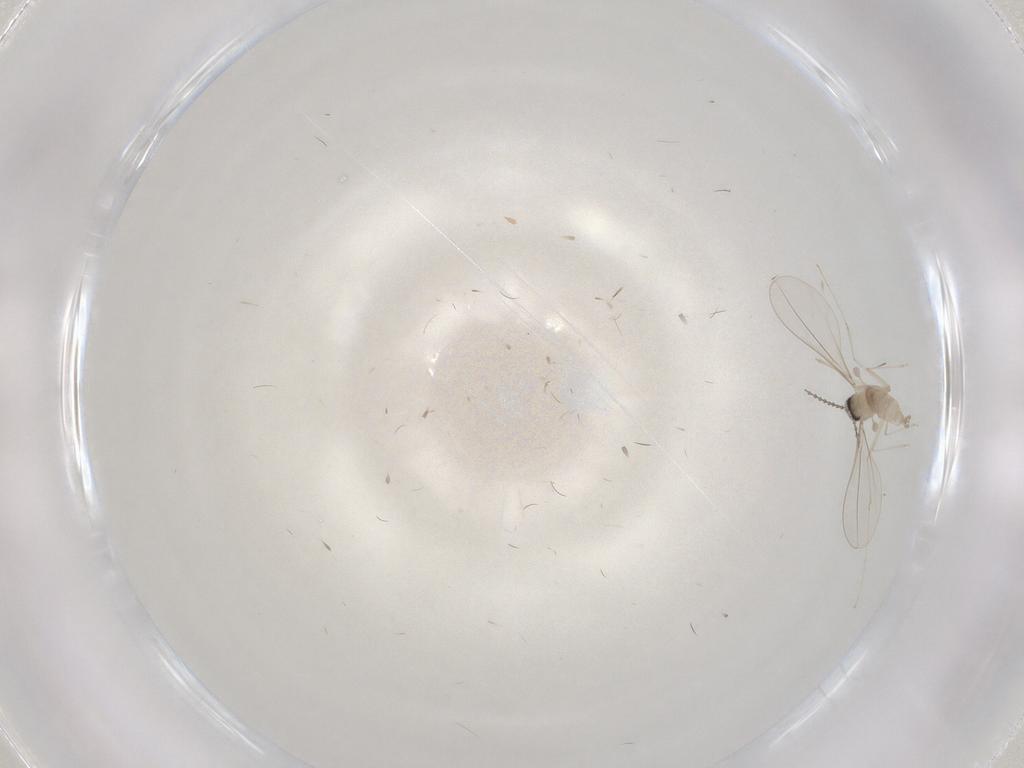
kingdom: Animalia
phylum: Arthropoda
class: Insecta
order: Diptera
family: Cecidomyiidae
